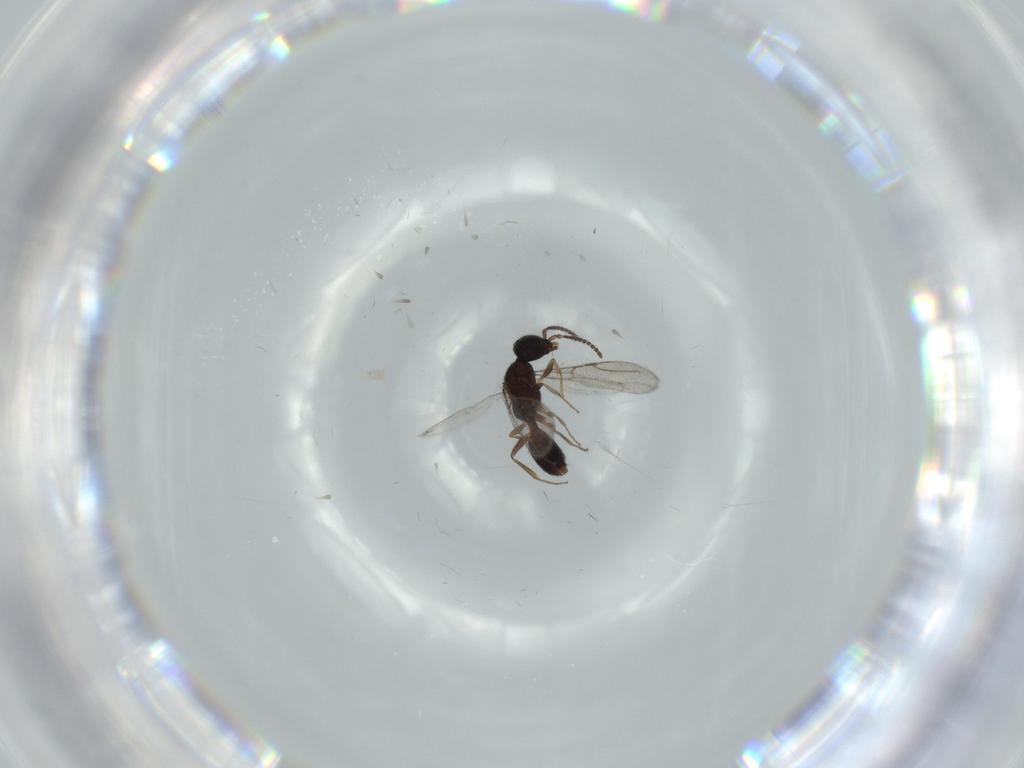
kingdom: Animalia
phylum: Arthropoda
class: Insecta
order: Hymenoptera
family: Bethylidae
